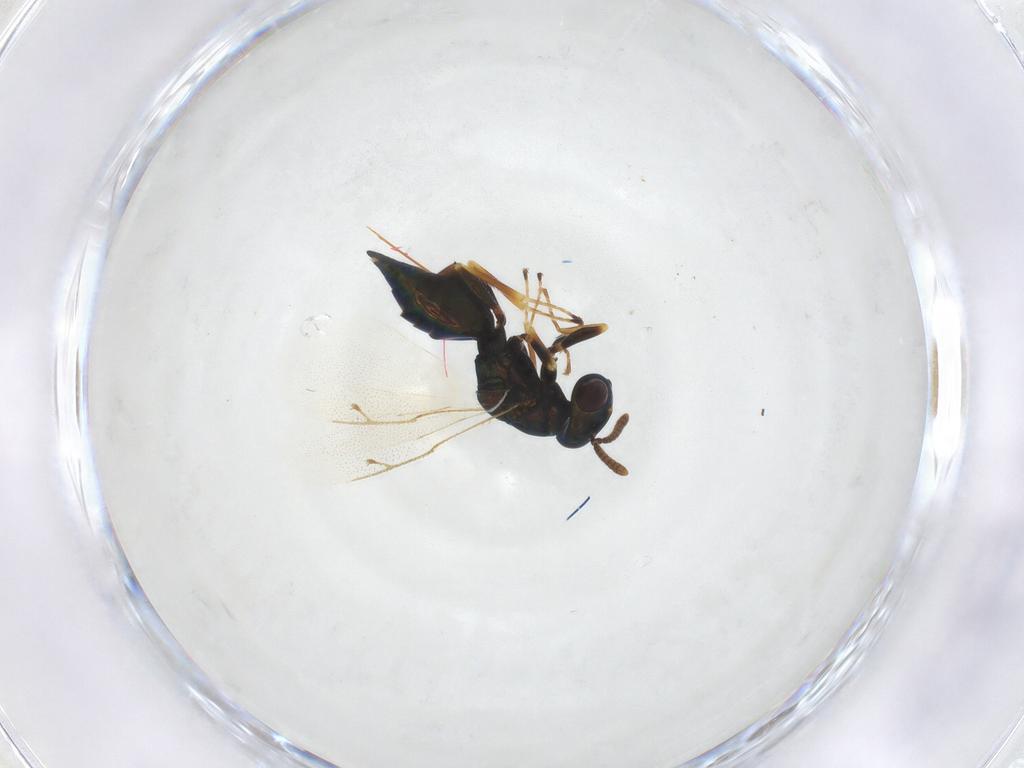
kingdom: Animalia
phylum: Arthropoda
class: Insecta
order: Hymenoptera
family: Pteromalidae
